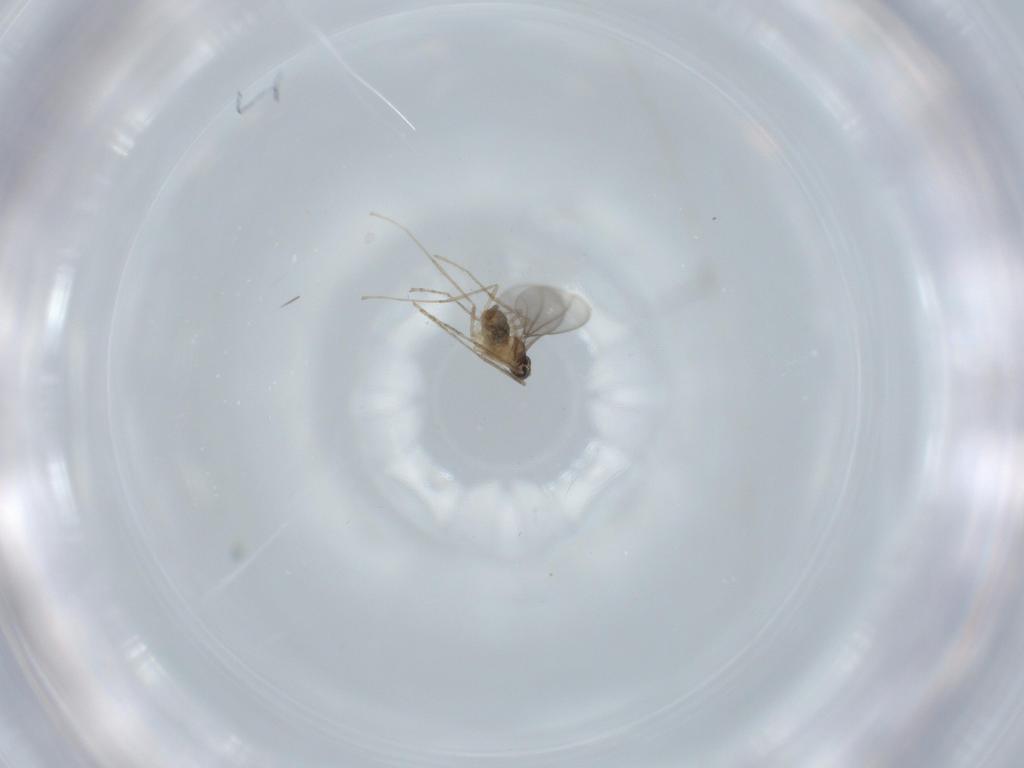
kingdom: Animalia
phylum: Arthropoda
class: Insecta
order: Diptera
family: Cecidomyiidae
